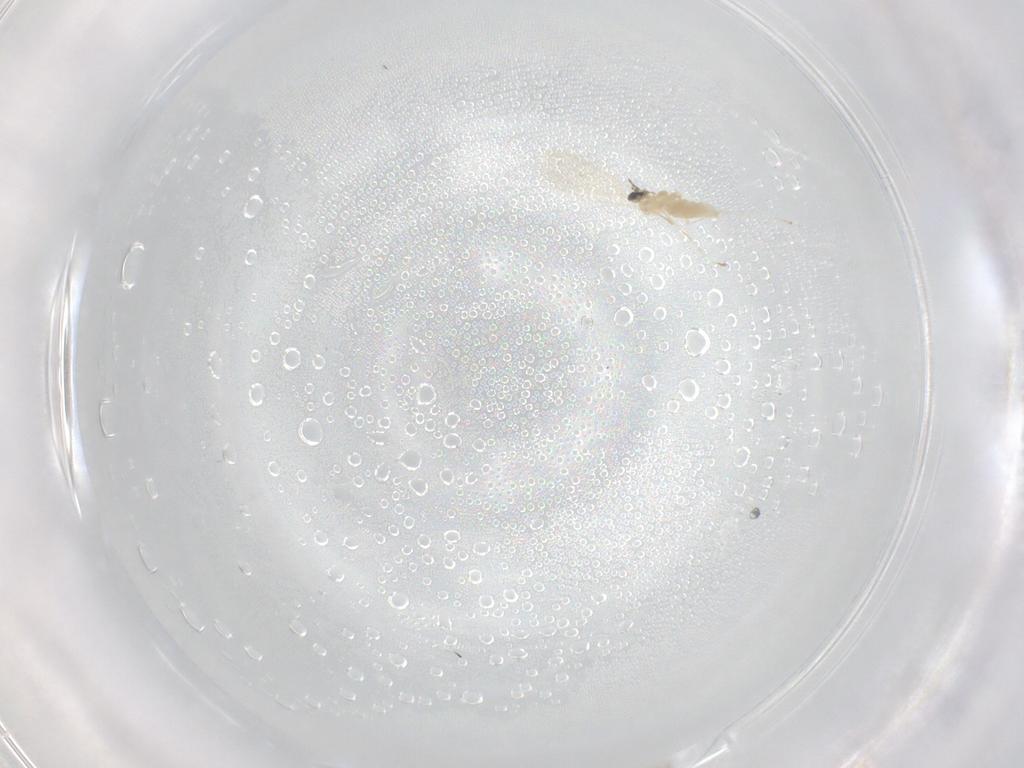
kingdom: Animalia
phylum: Arthropoda
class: Insecta
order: Diptera
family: Cecidomyiidae
